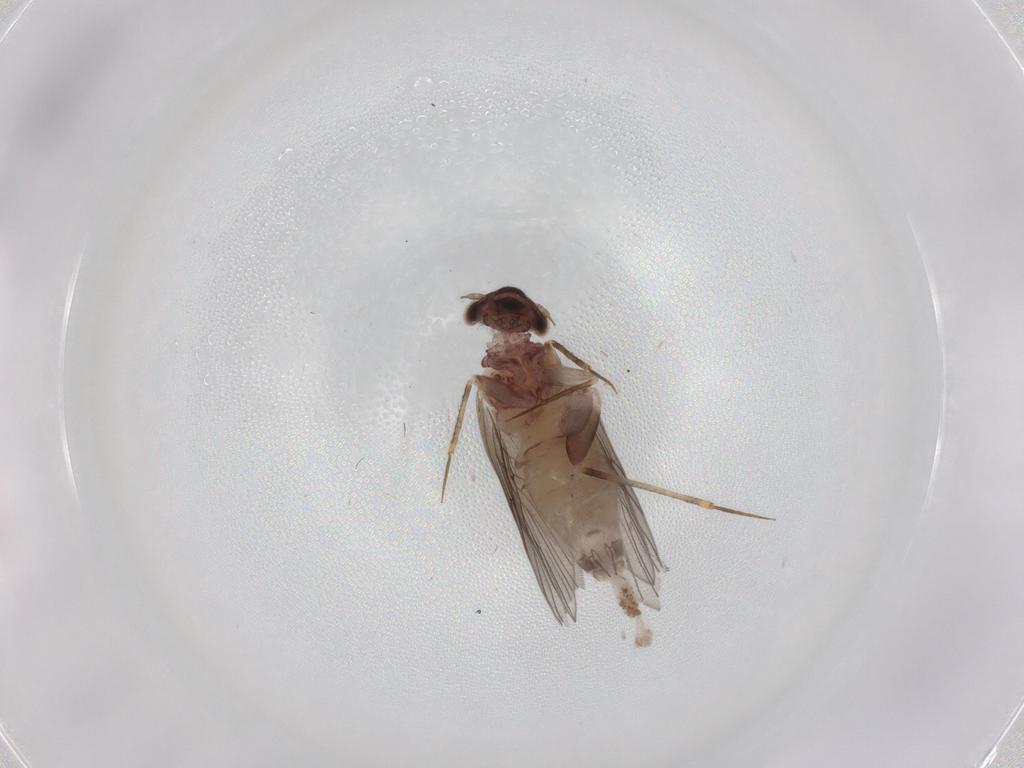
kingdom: Animalia
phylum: Arthropoda
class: Insecta
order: Psocodea
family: Lepidopsocidae
